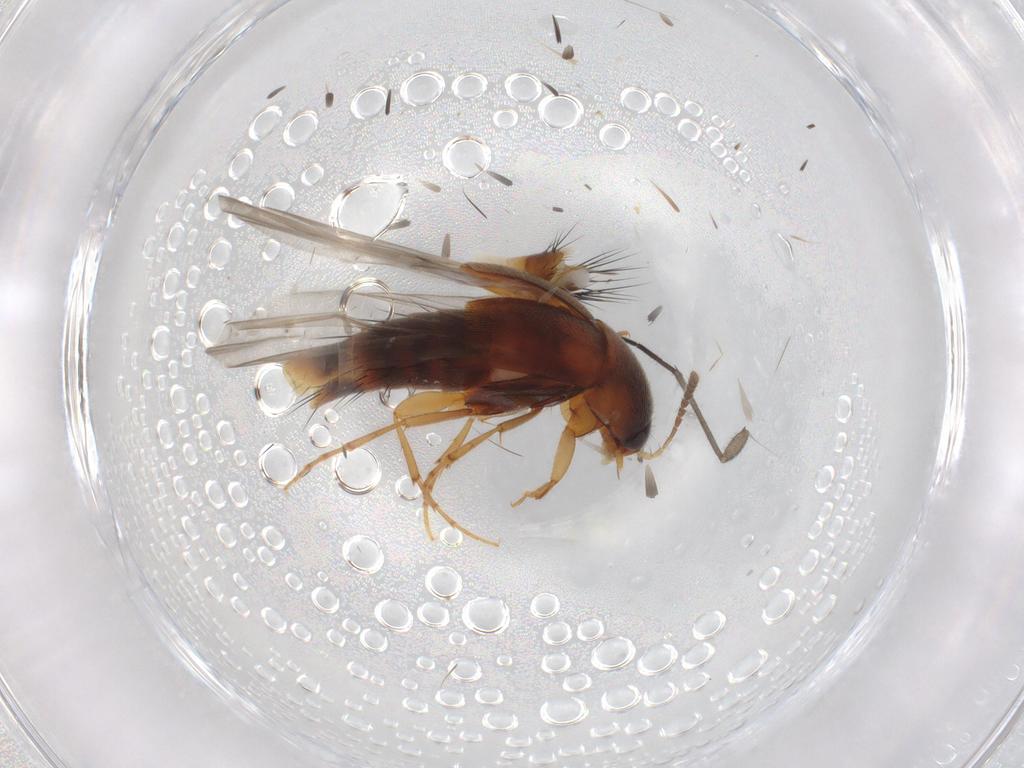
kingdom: Animalia
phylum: Arthropoda
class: Insecta
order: Coleoptera
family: Staphylinidae
